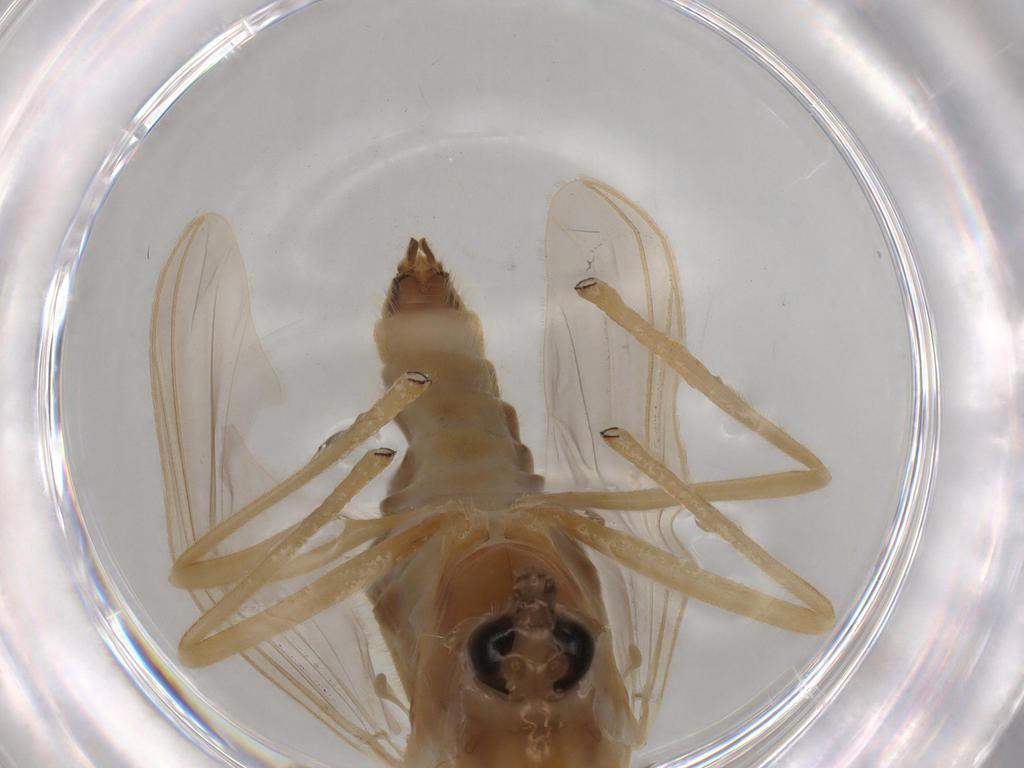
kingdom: Animalia
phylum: Arthropoda
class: Insecta
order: Diptera
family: Chironomidae
